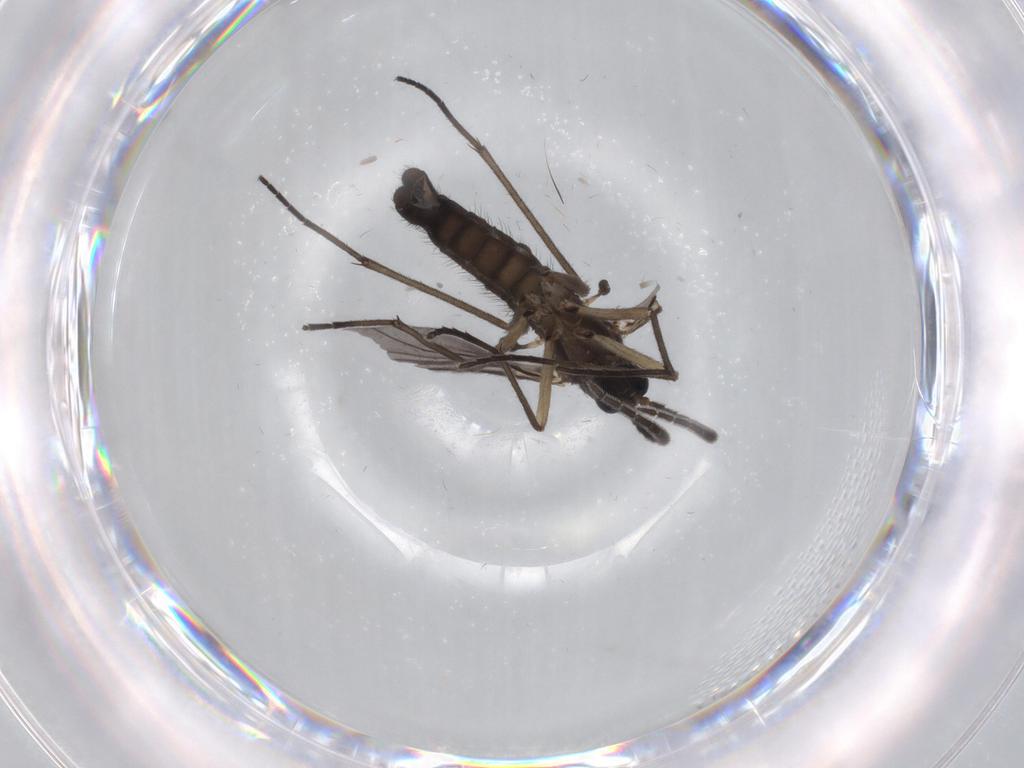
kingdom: Animalia
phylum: Arthropoda
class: Insecta
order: Diptera
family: Sciaridae
